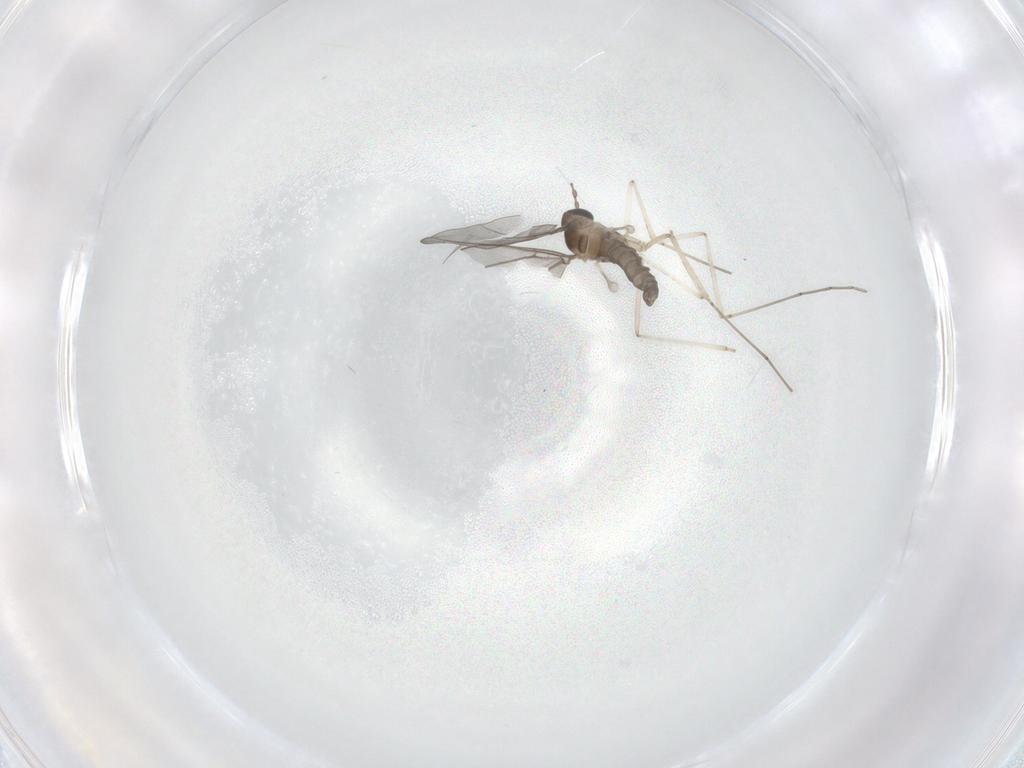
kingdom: Animalia
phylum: Arthropoda
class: Insecta
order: Diptera
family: Cecidomyiidae
